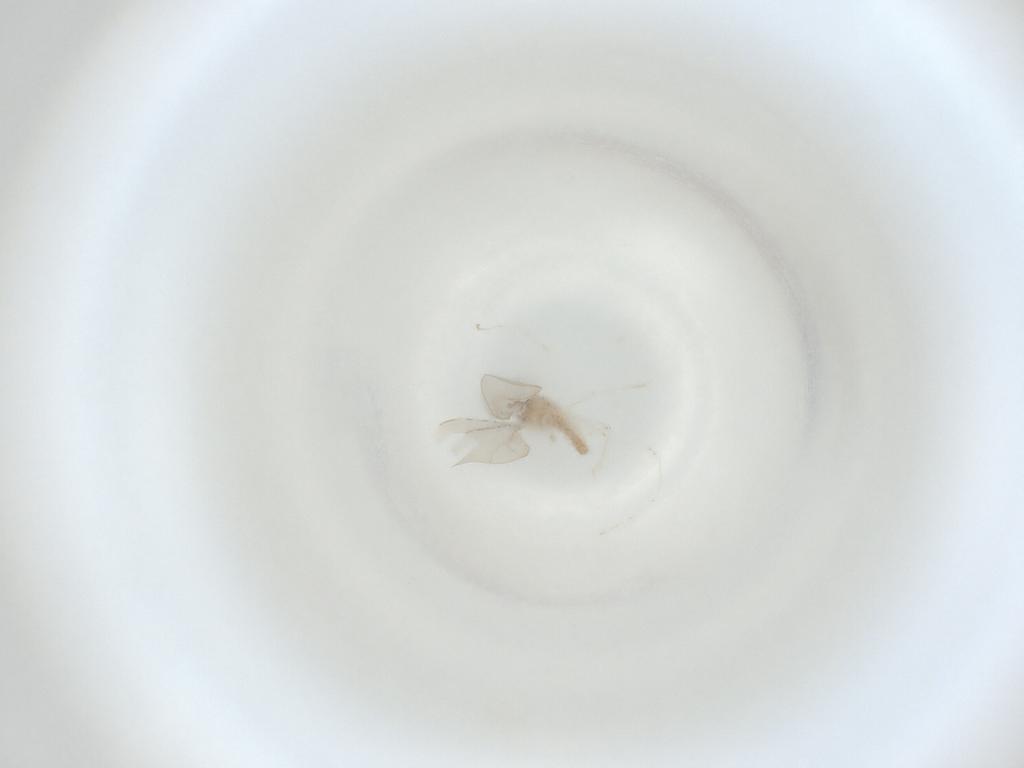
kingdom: Animalia
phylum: Arthropoda
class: Insecta
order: Diptera
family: Cecidomyiidae
